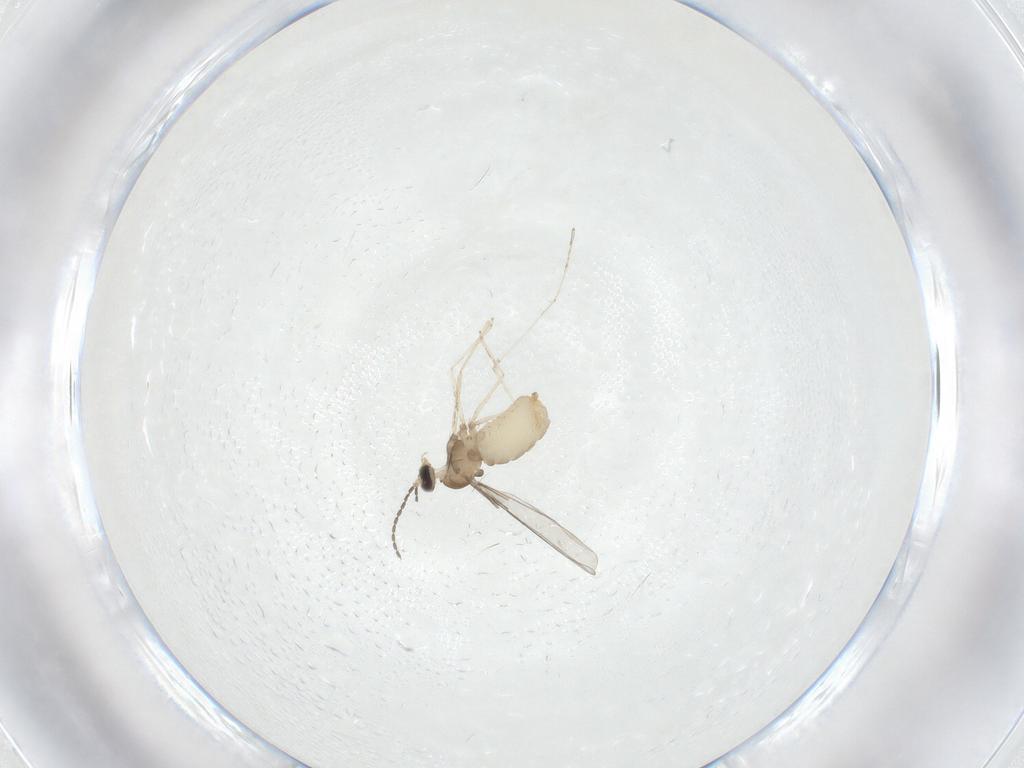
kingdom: Animalia
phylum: Arthropoda
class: Insecta
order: Diptera
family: Cecidomyiidae
